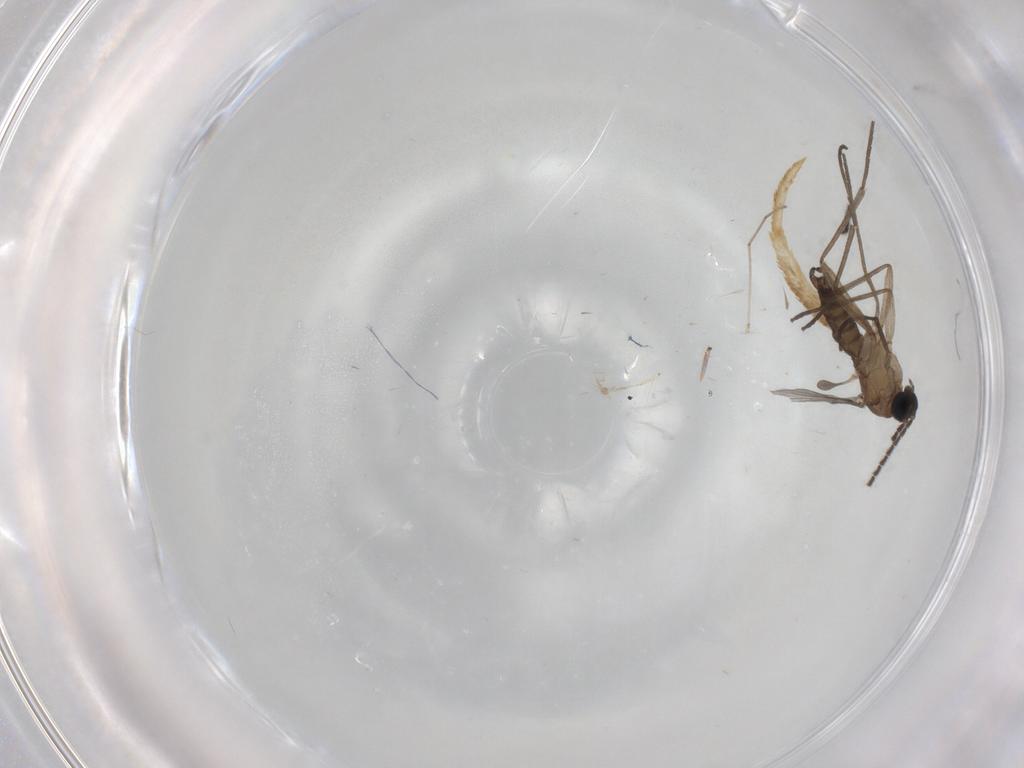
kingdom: Animalia
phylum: Arthropoda
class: Insecta
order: Diptera
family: Sciaridae
